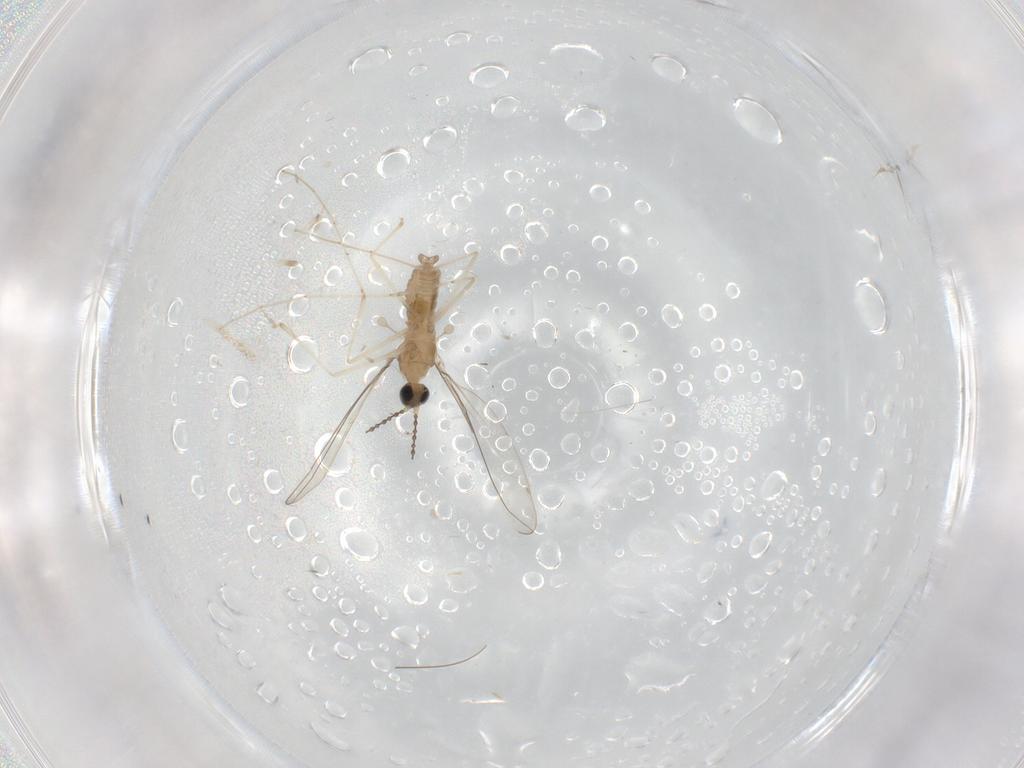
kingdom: Animalia
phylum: Arthropoda
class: Insecta
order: Diptera
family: Cecidomyiidae
